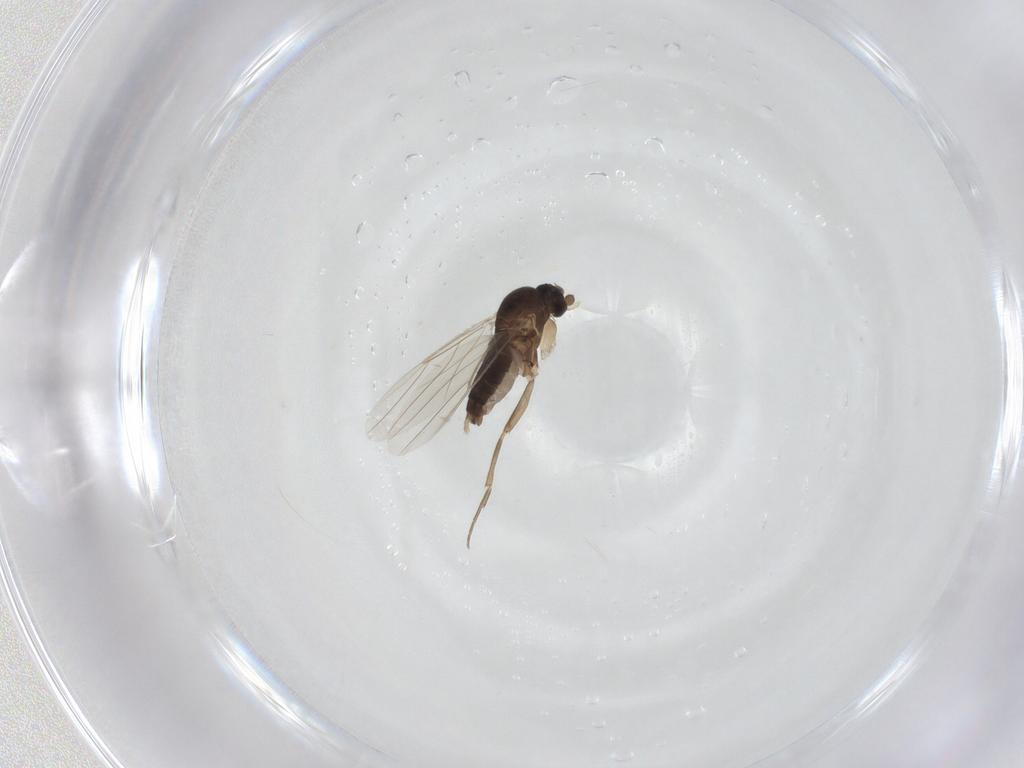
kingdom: Animalia
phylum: Arthropoda
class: Insecta
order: Diptera
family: Phoridae
